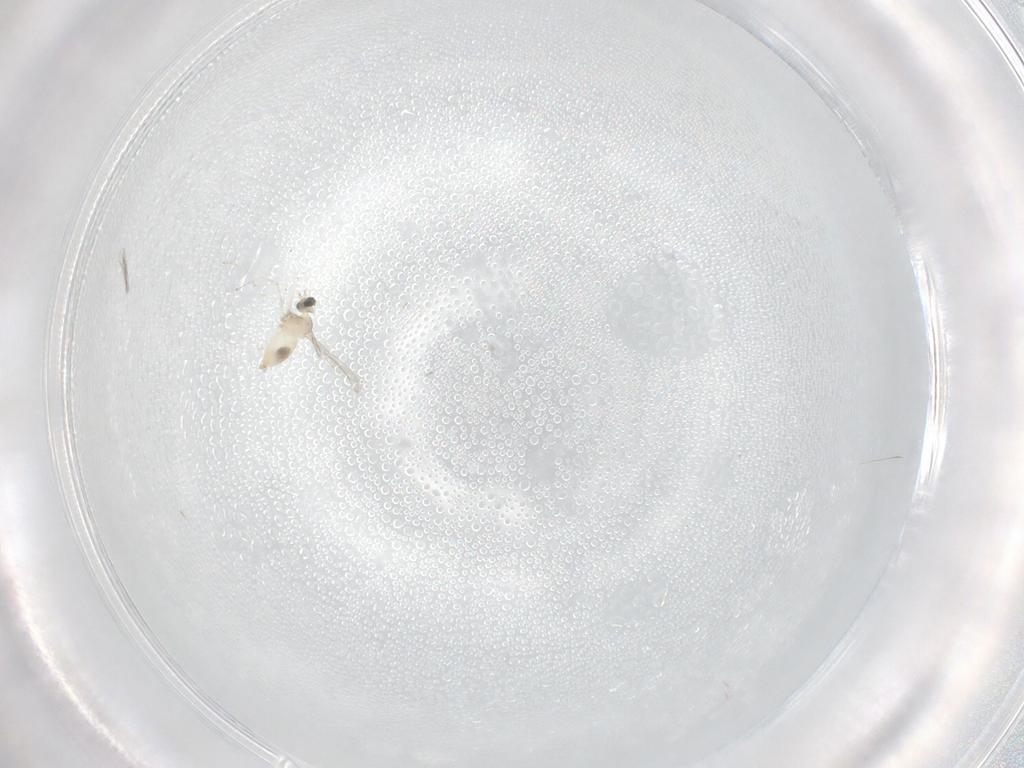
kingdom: Animalia
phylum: Arthropoda
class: Insecta
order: Diptera
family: Cecidomyiidae
